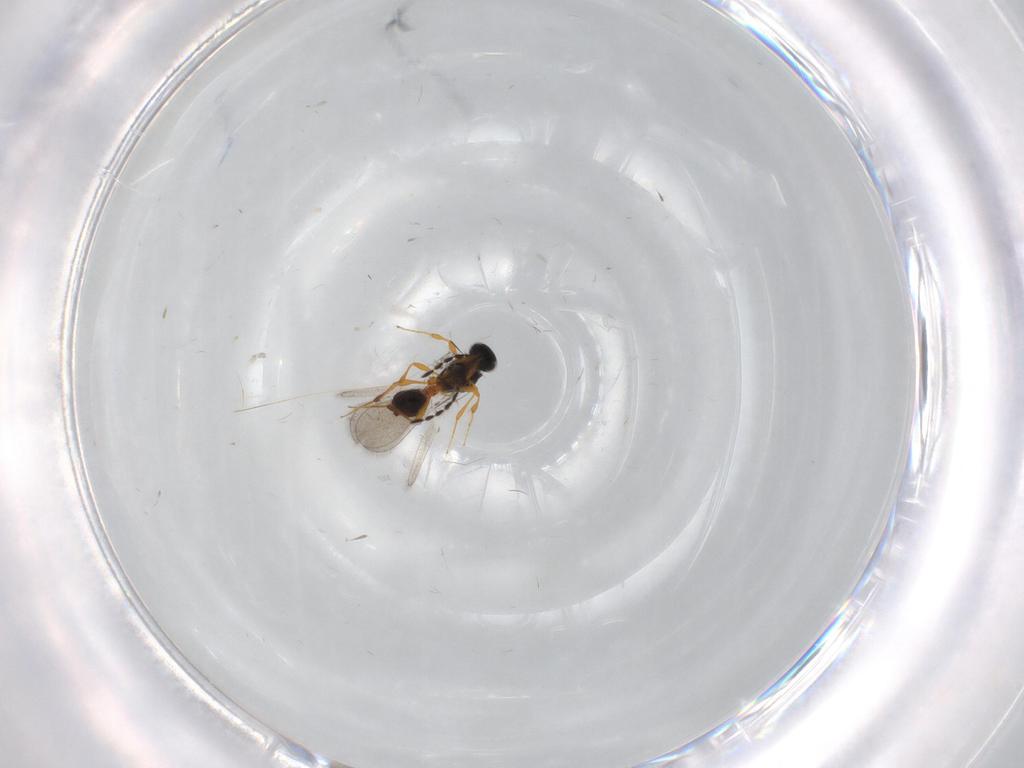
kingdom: Animalia
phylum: Arthropoda
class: Insecta
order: Hymenoptera
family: Platygastridae
